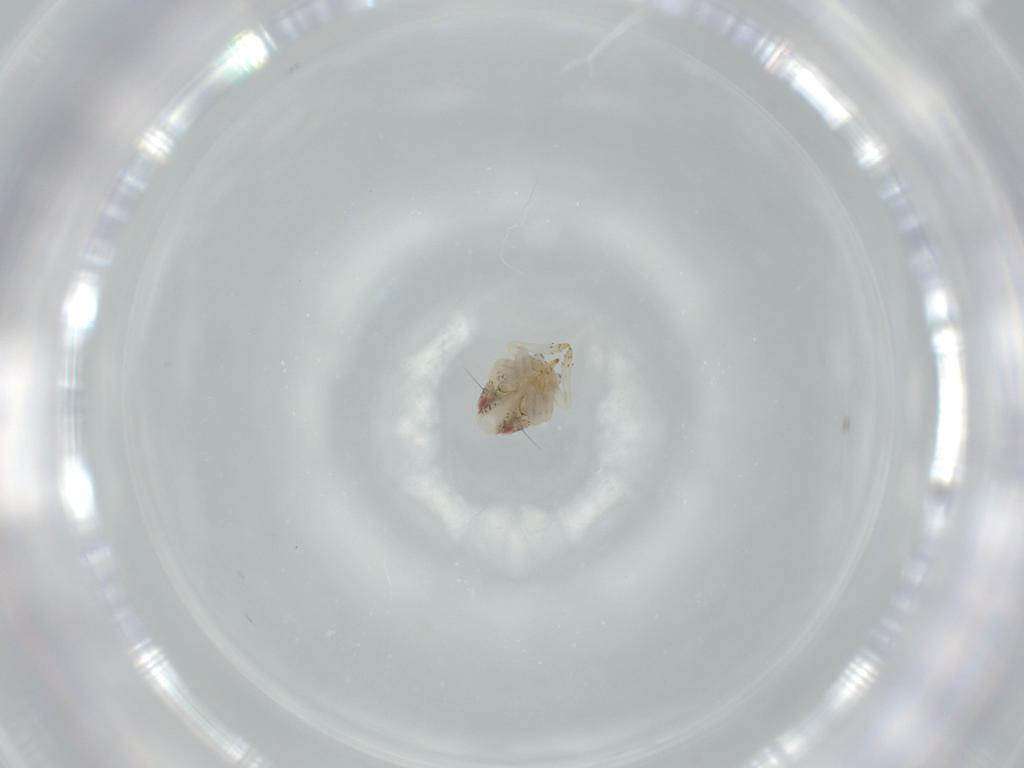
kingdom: Animalia
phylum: Arthropoda
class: Insecta
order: Hemiptera
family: Acanaloniidae
